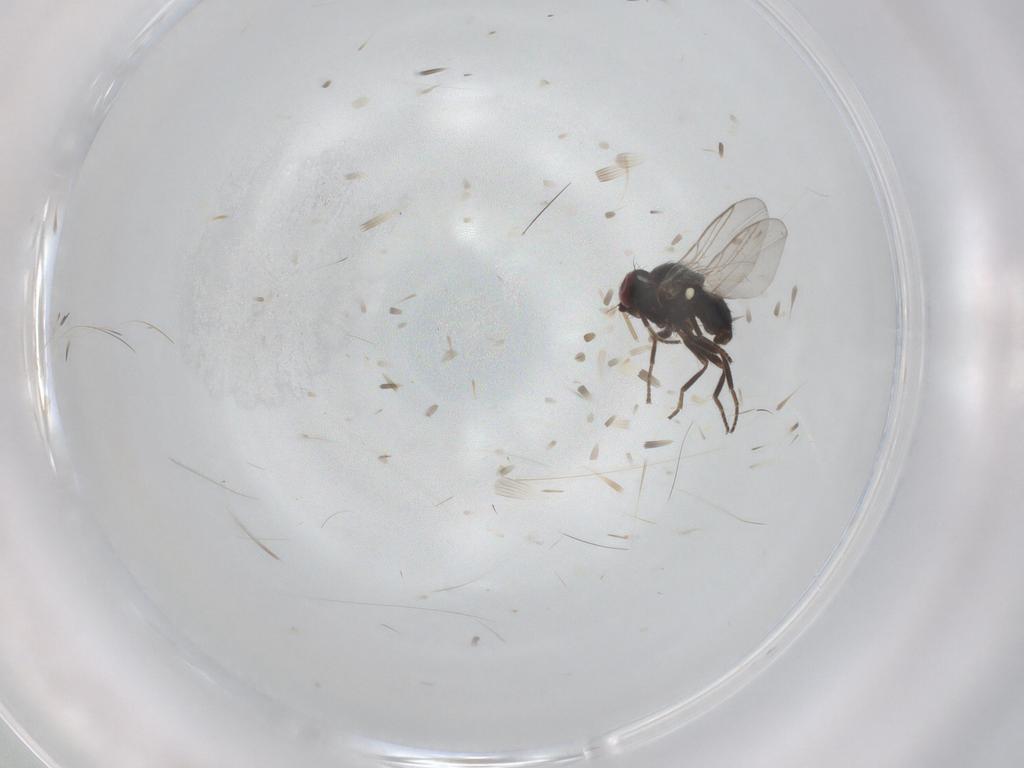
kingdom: Animalia
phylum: Arthropoda
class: Insecta
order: Diptera
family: Agromyzidae
